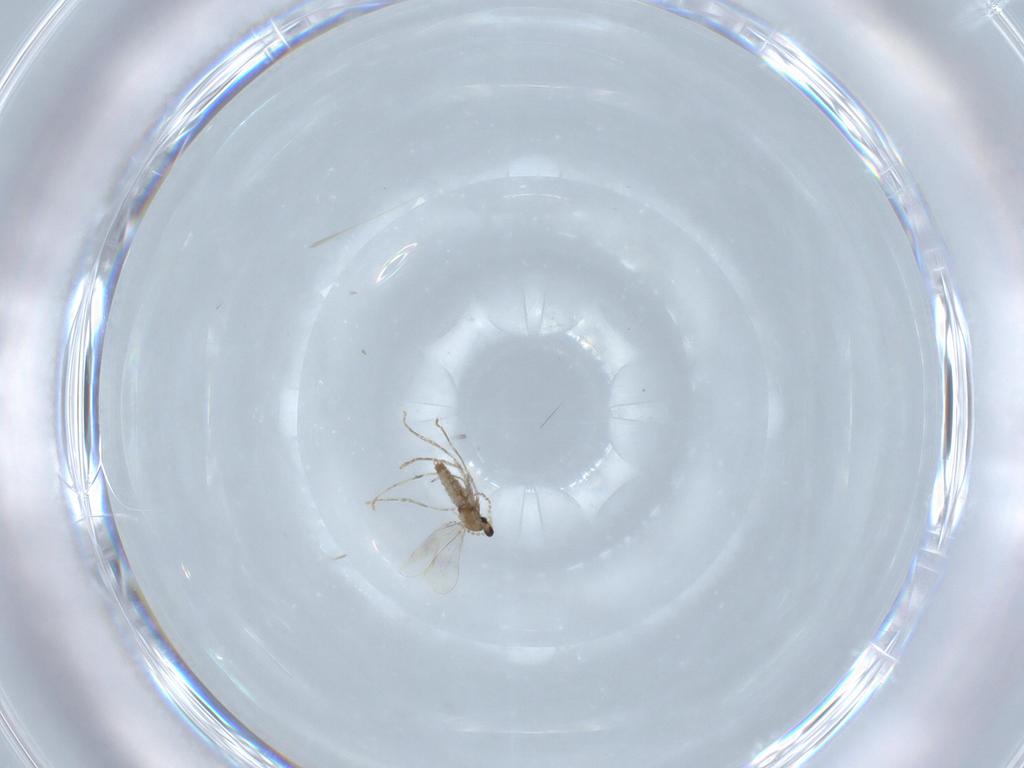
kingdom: Animalia
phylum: Arthropoda
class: Insecta
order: Diptera
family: Cecidomyiidae
